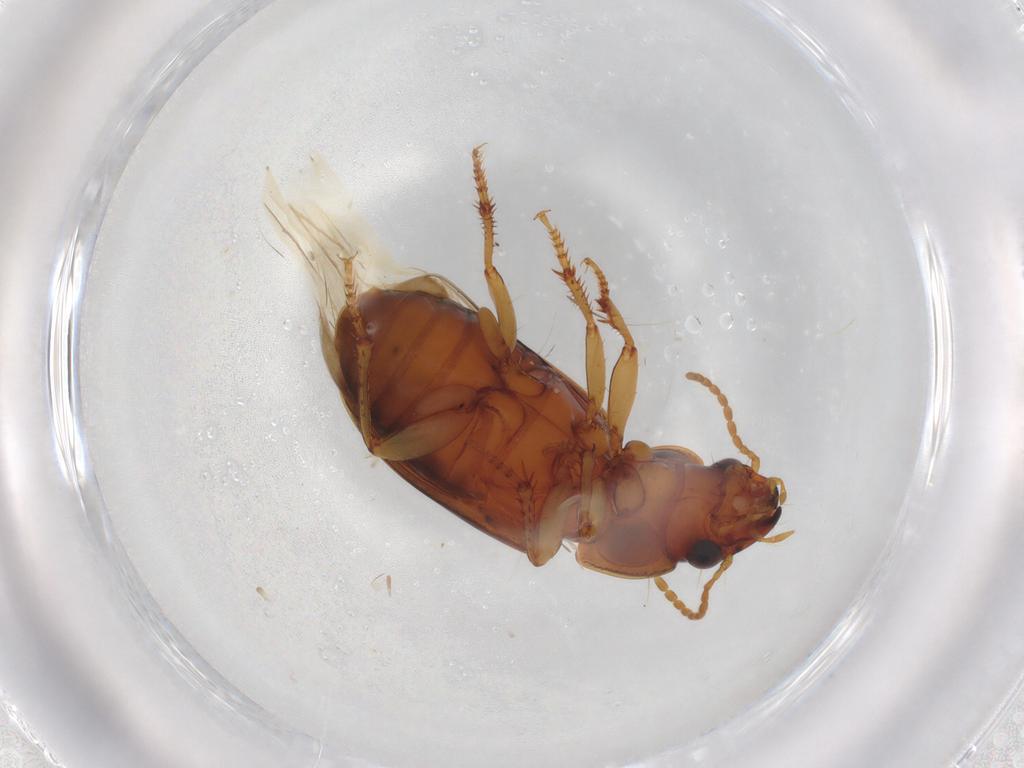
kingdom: Animalia
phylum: Arthropoda
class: Insecta
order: Coleoptera
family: Carabidae
